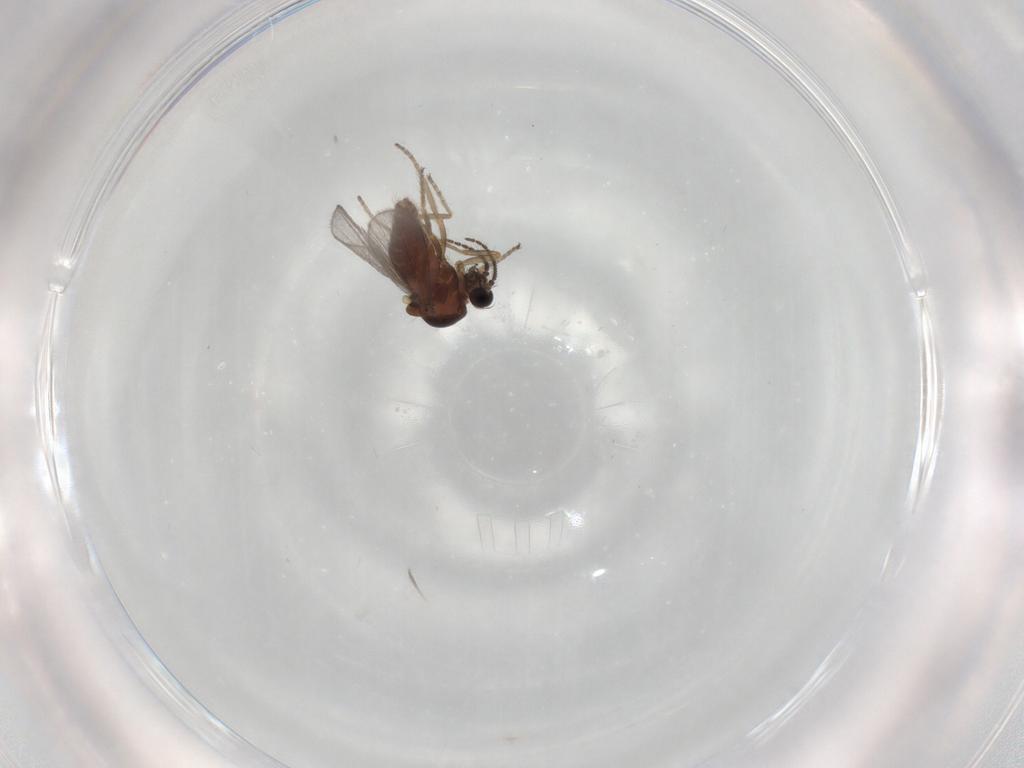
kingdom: Animalia
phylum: Arthropoda
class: Insecta
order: Diptera
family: Ceratopogonidae
